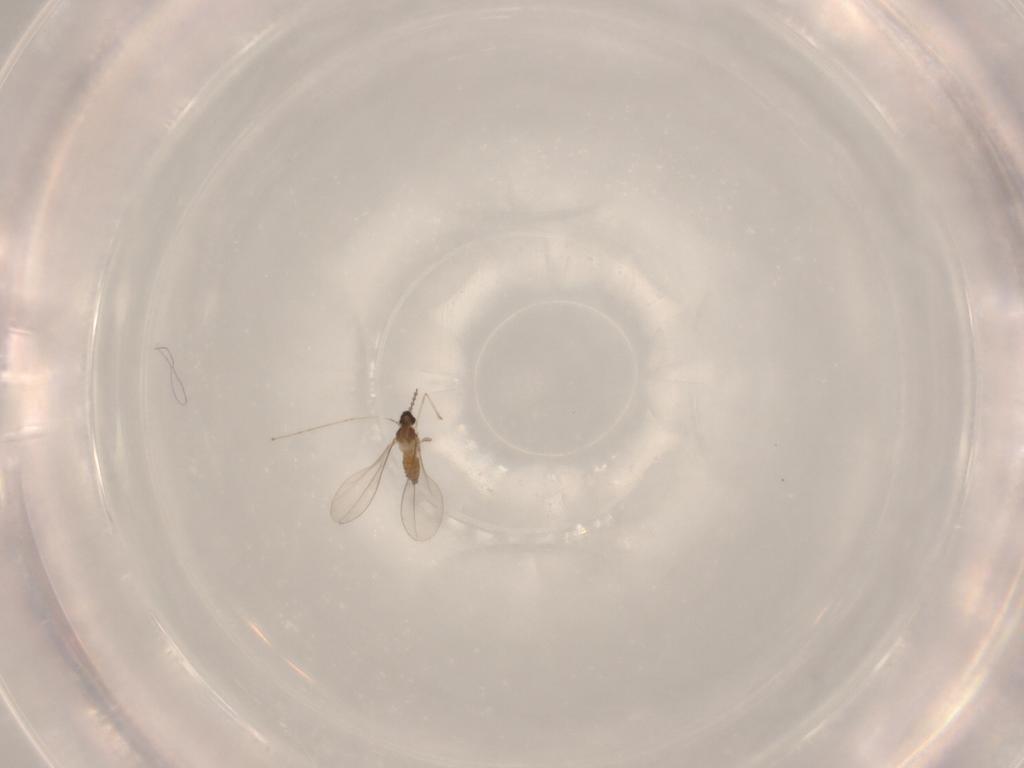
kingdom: Animalia
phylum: Arthropoda
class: Insecta
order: Diptera
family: Cecidomyiidae
